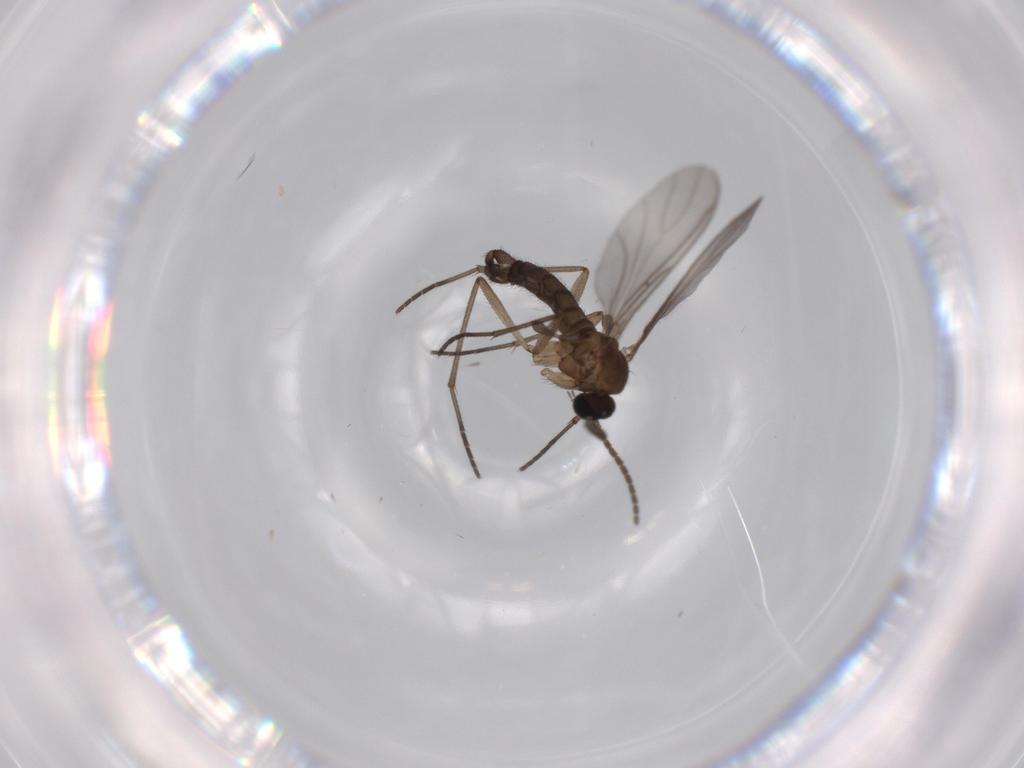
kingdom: Animalia
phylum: Arthropoda
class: Insecta
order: Diptera
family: Sciaridae
